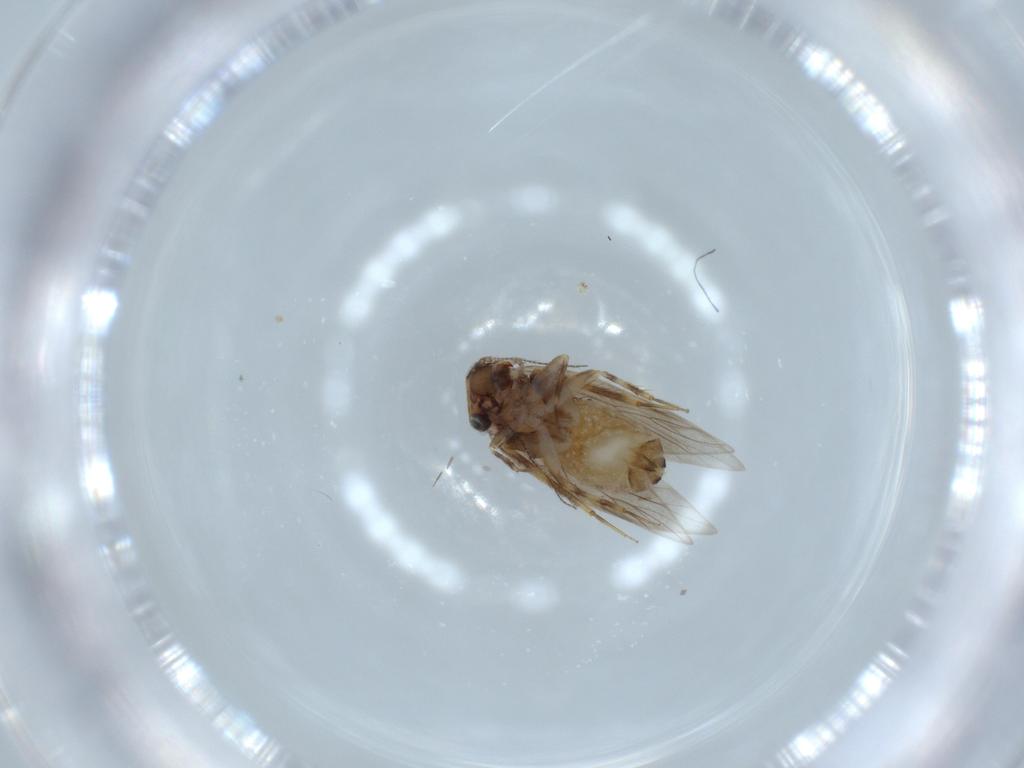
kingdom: Animalia
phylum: Arthropoda
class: Insecta
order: Psocodea
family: Lepidopsocidae
